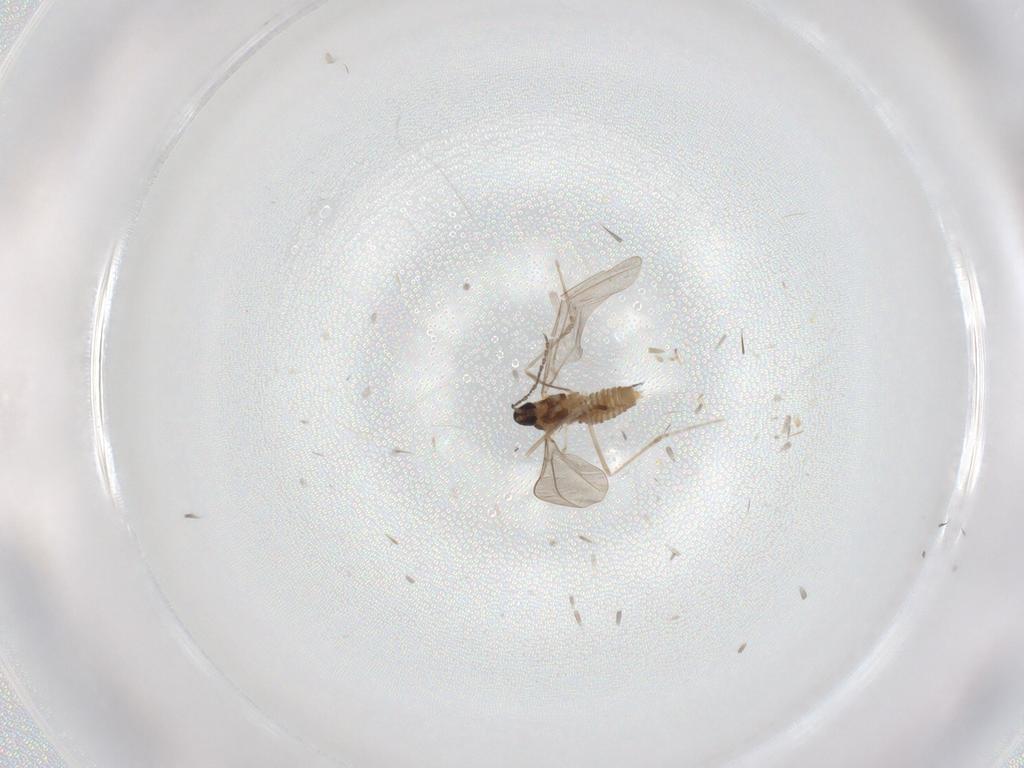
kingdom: Animalia
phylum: Arthropoda
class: Insecta
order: Diptera
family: Cecidomyiidae
